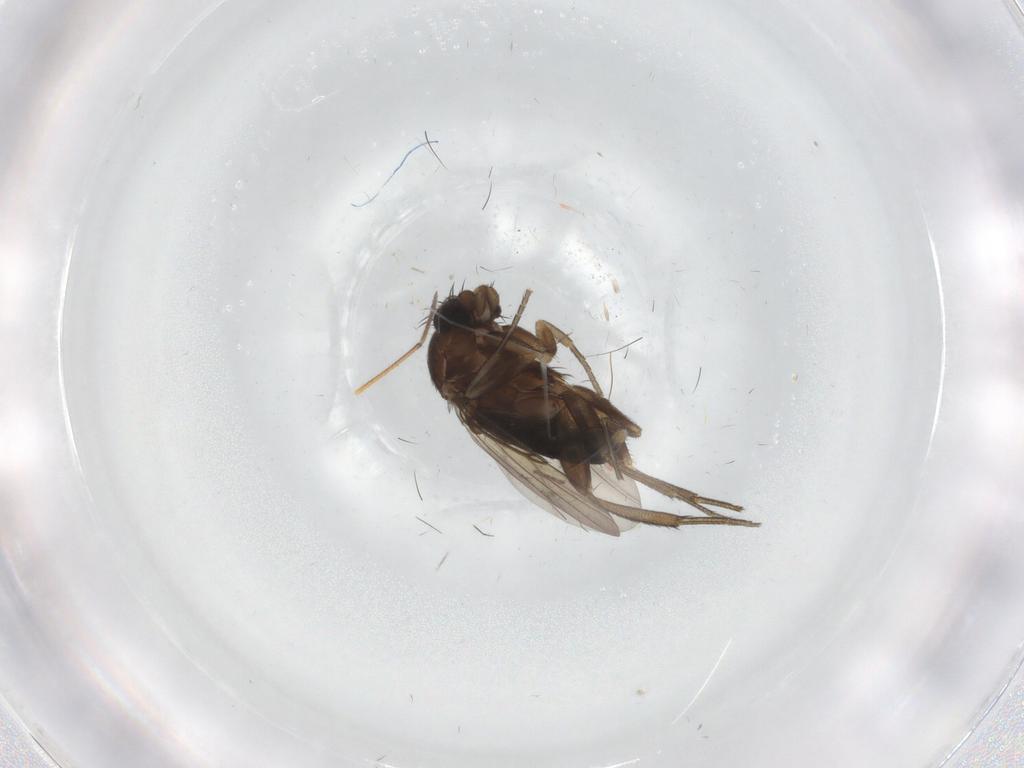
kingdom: Animalia
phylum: Arthropoda
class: Insecta
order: Diptera
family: Phoridae
